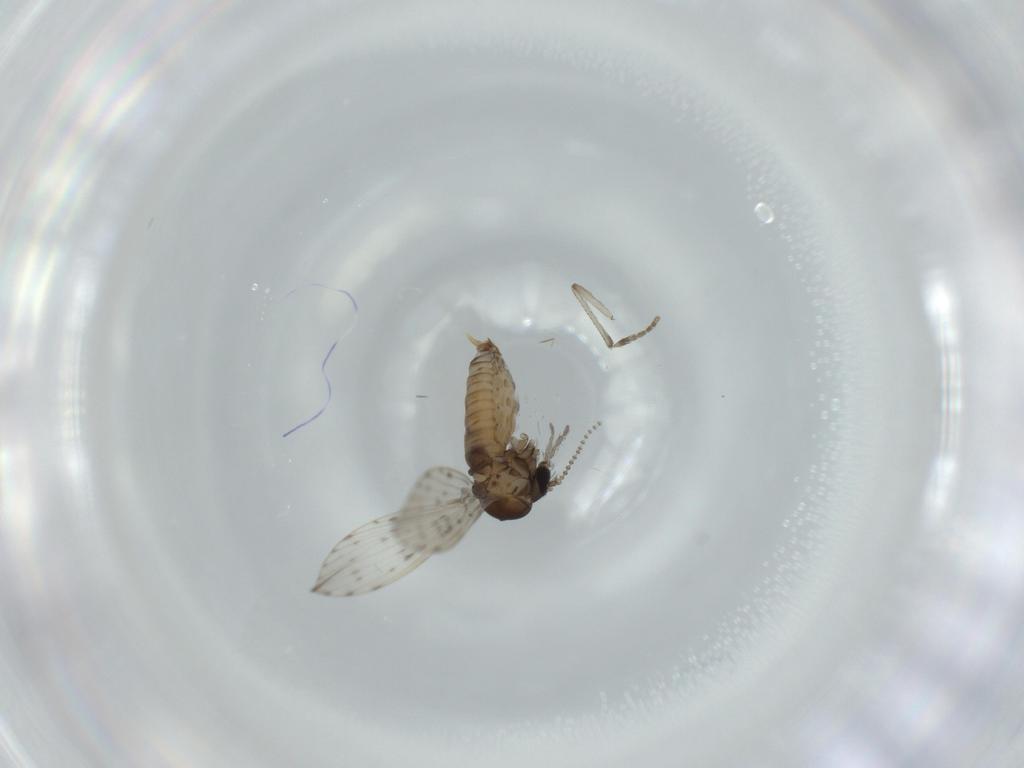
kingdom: Animalia
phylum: Arthropoda
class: Insecta
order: Diptera
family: Psychodidae
